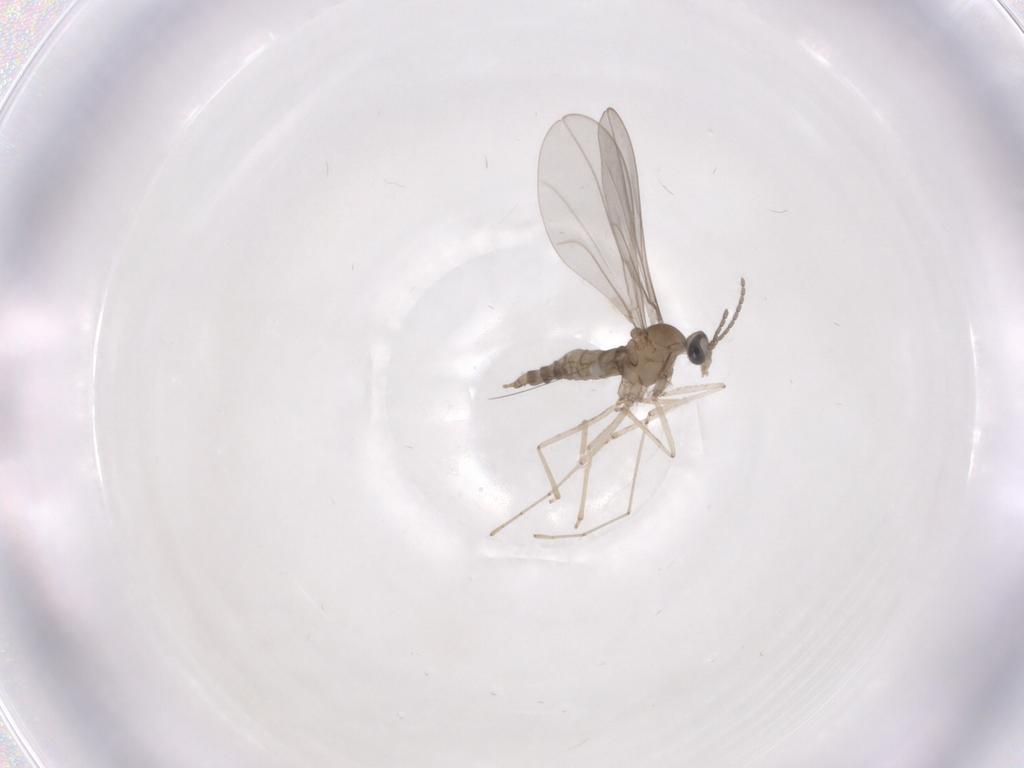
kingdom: Animalia
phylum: Arthropoda
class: Insecta
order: Diptera
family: Cecidomyiidae
